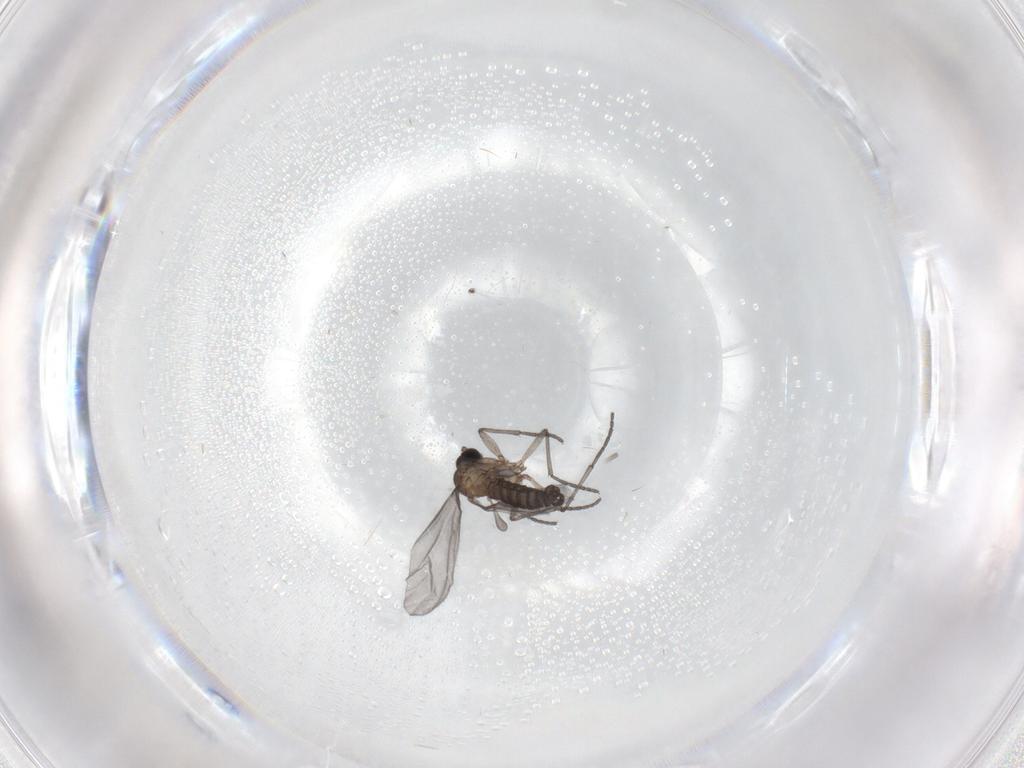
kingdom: Animalia
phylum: Arthropoda
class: Insecta
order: Diptera
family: Sciaridae
